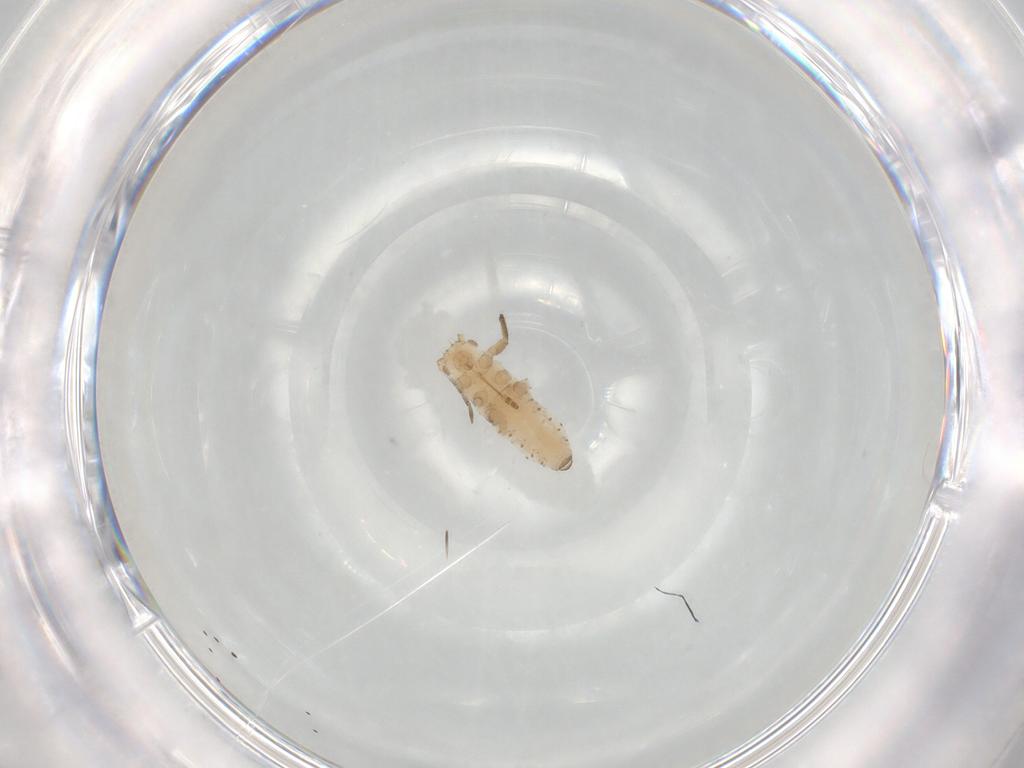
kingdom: Animalia
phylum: Arthropoda
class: Insecta
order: Hemiptera
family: Aphididae
